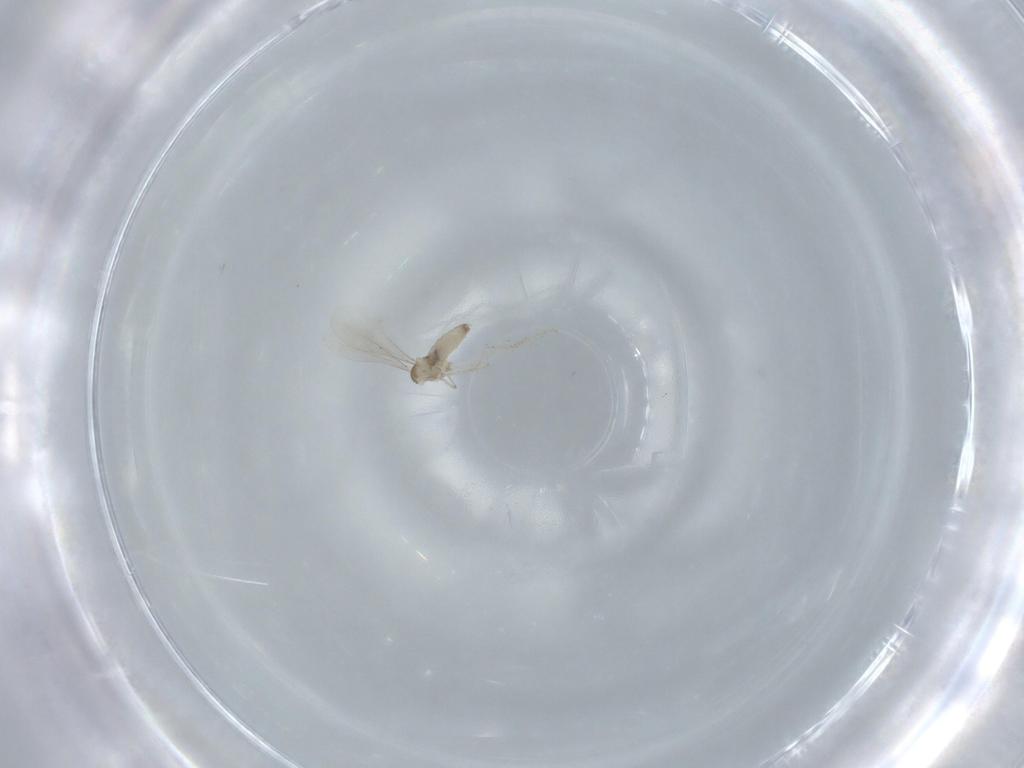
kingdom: Animalia
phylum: Arthropoda
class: Insecta
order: Diptera
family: Cecidomyiidae
